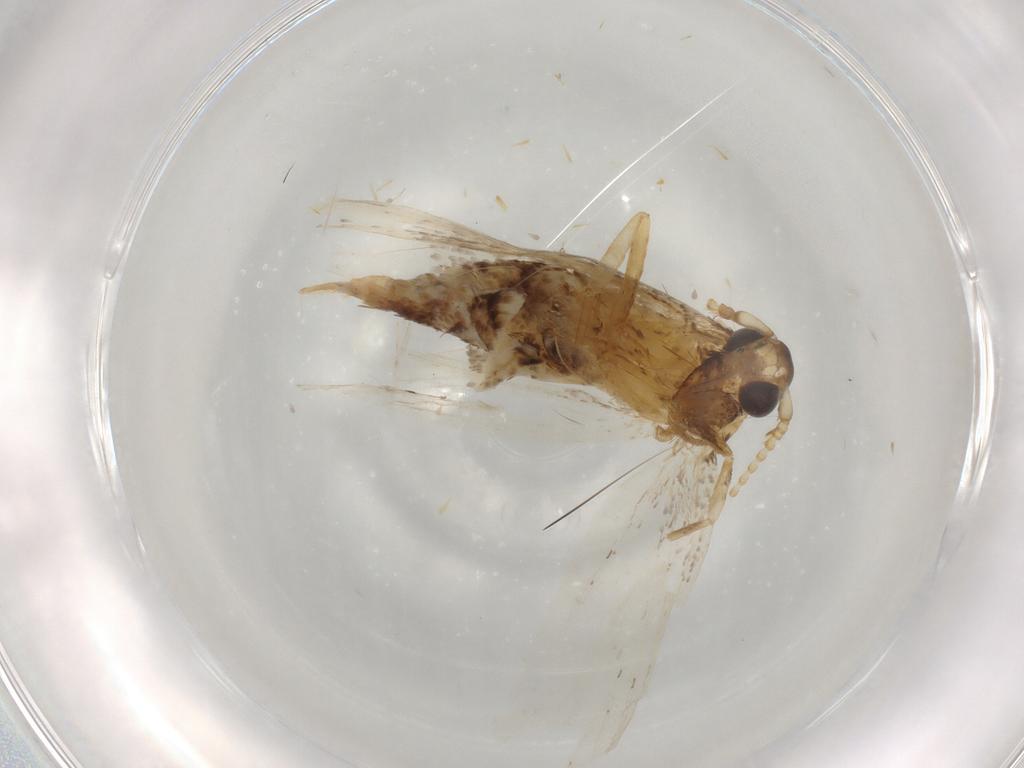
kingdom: Animalia
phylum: Arthropoda
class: Insecta
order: Lepidoptera
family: Lecithoceridae
